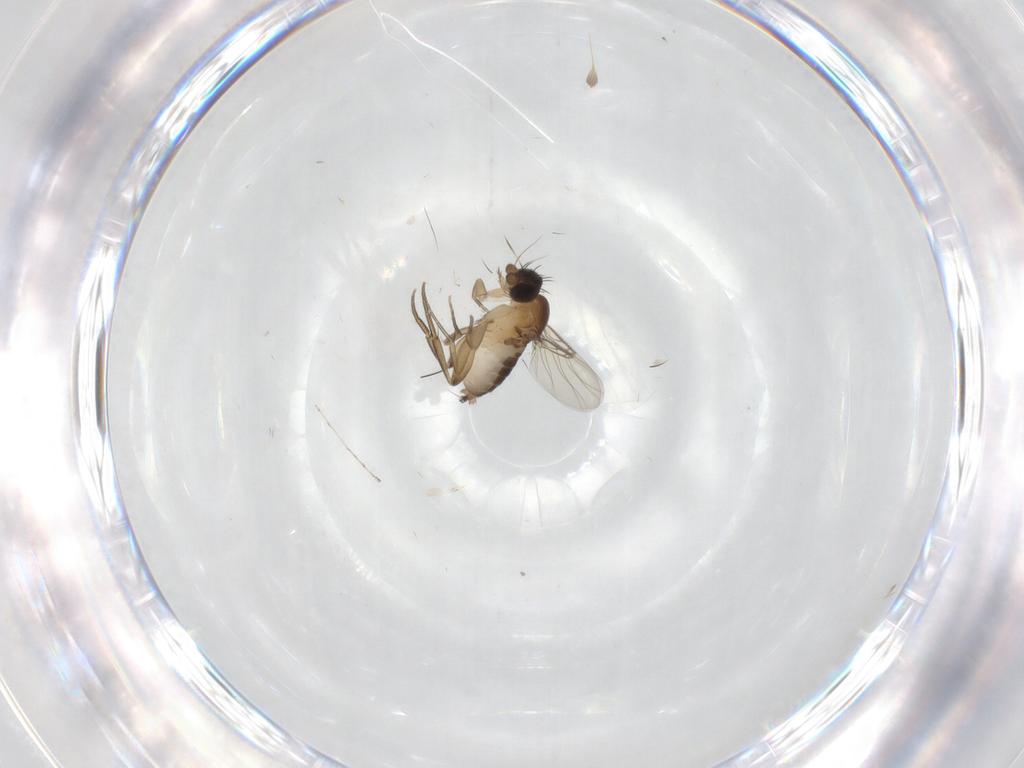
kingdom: Animalia
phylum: Arthropoda
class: Insecta
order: Diptera
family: Phoridae
